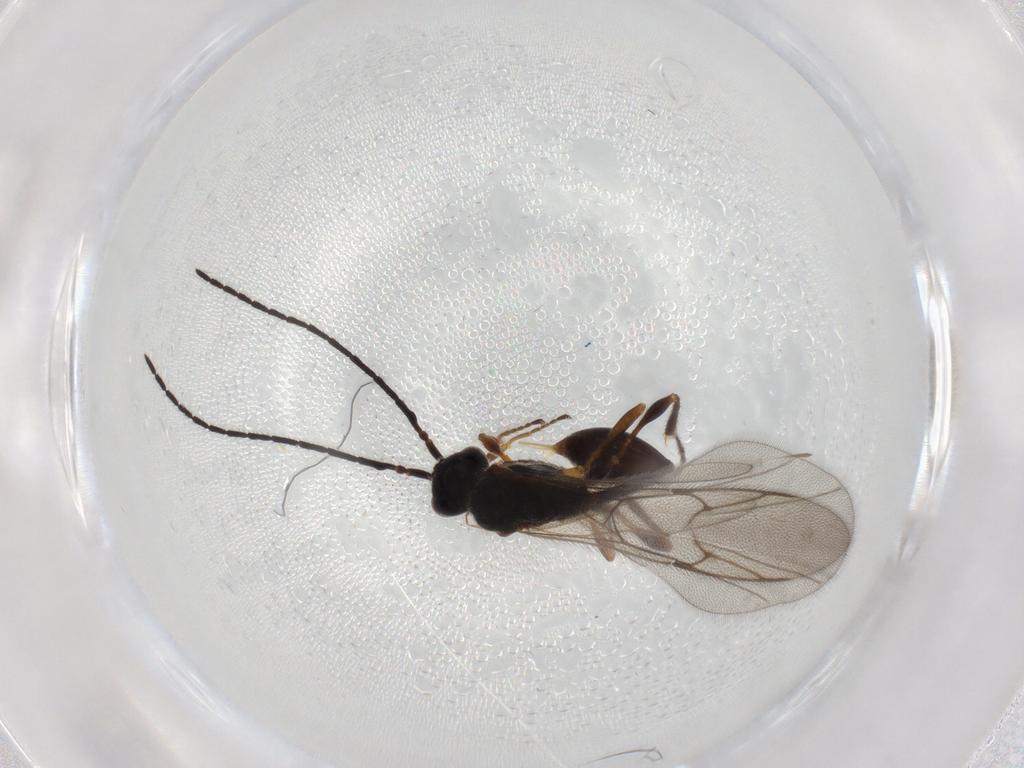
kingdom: Animalia
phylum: Arthropoda
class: Insecta
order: Hymenoptera
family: Diapriidae
